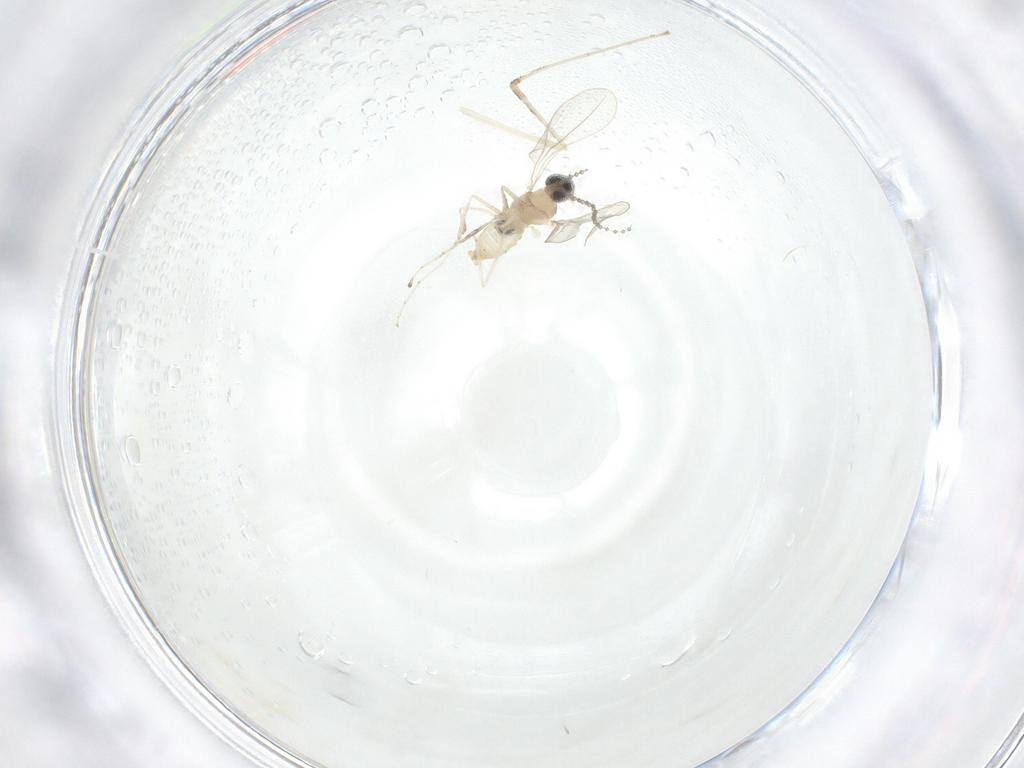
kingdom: Animalia
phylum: Arthropoda
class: Insecta
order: Diptera
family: Cecidomyiidae
